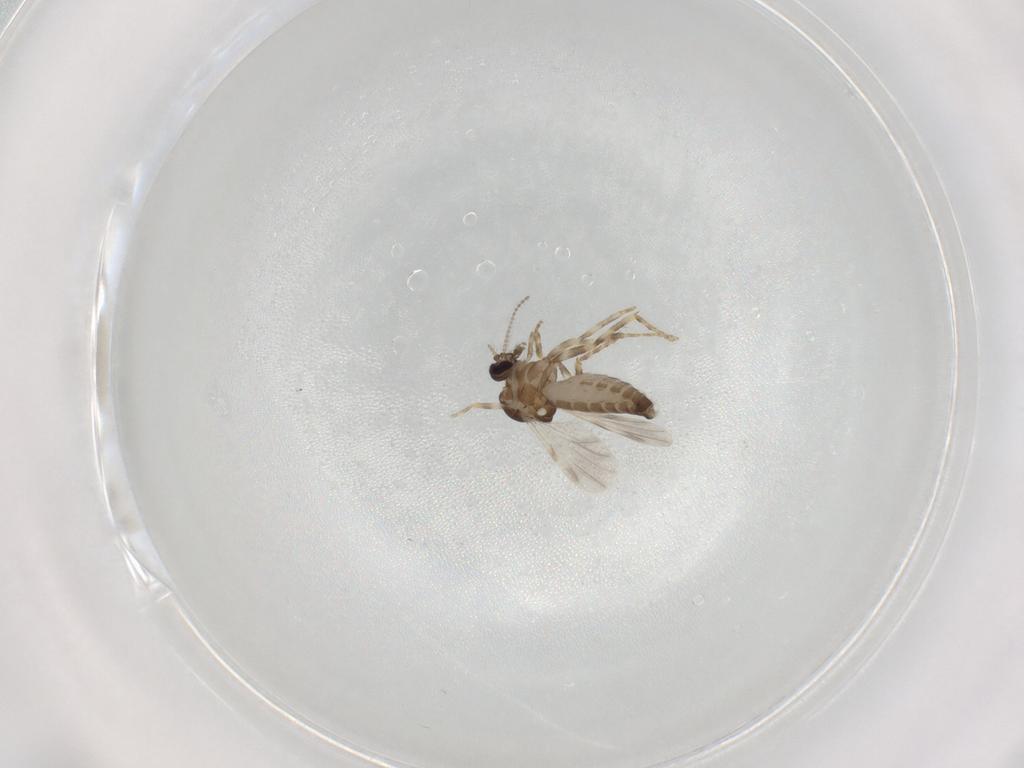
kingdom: Animalia
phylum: Arthropoda
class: Insecta
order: Diptera
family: Ceratopogonidae
